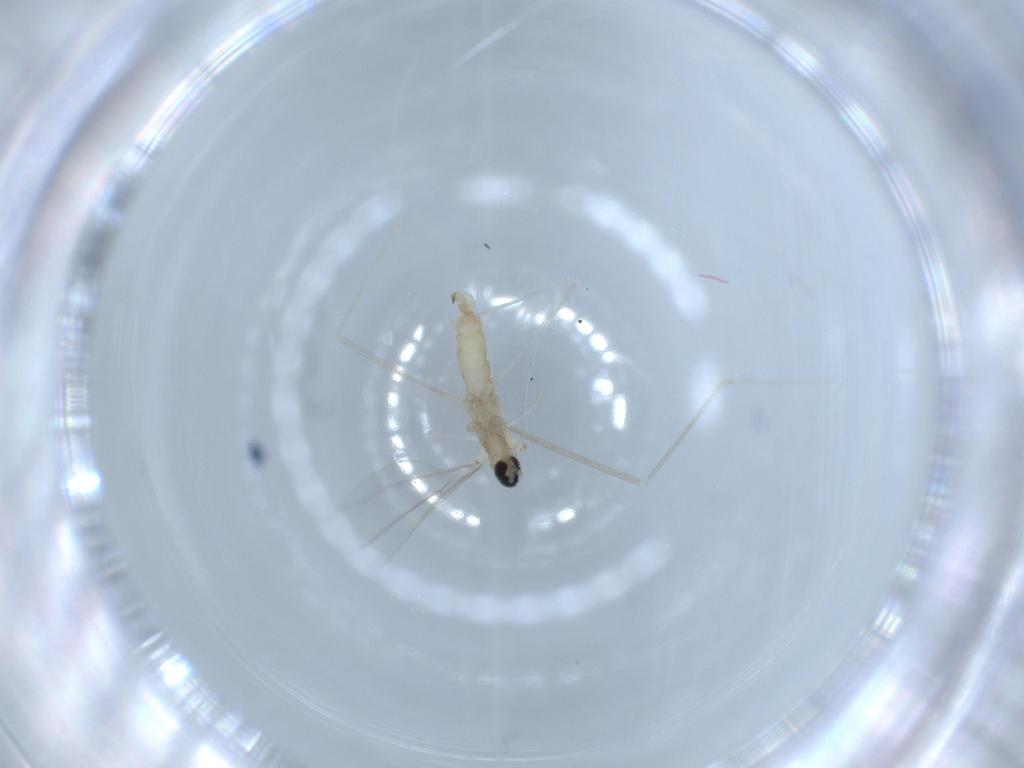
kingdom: Animalia
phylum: Arthropoda
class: Insecta
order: Diptera
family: Cecidomyiidae
